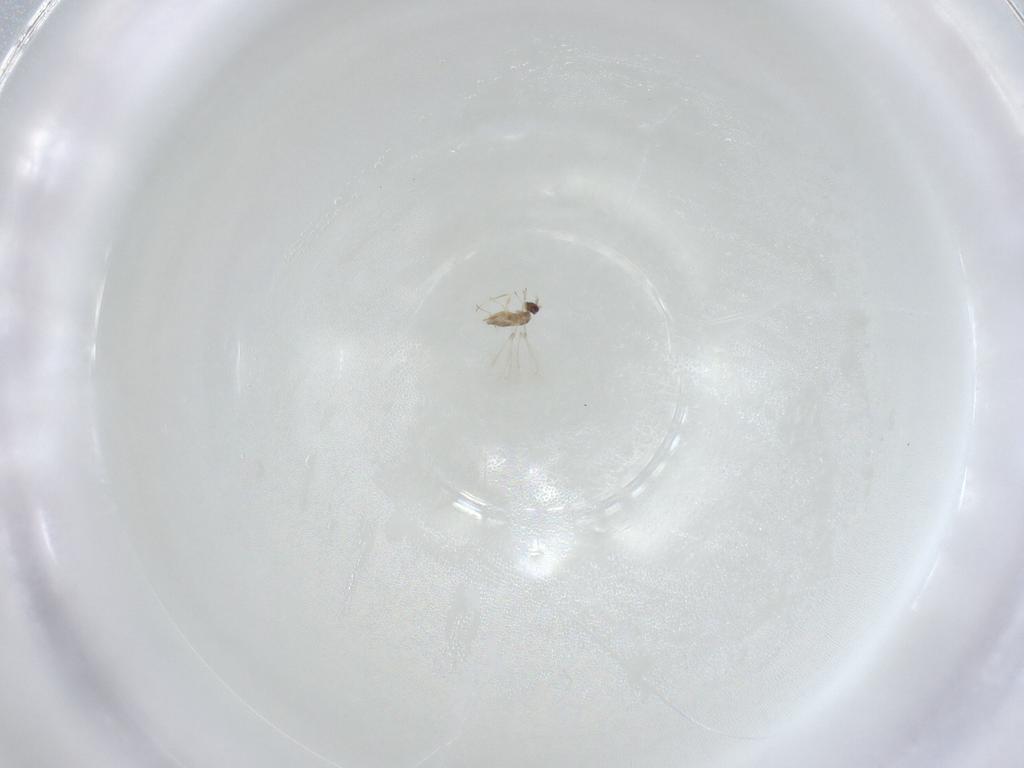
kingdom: Animalia
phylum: Arthropoda
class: Insecta
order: Hymenoptera
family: Mymaridae
